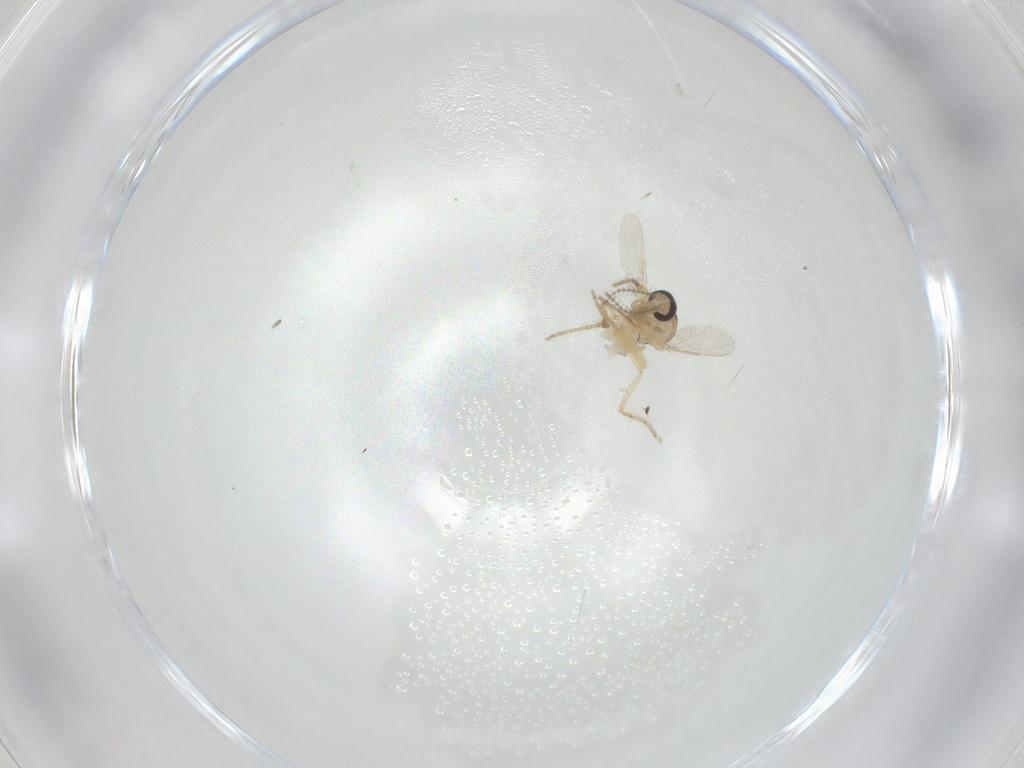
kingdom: Animalia
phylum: Arthropoda
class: Insecta
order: Diptera
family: Ceratopogonidae
